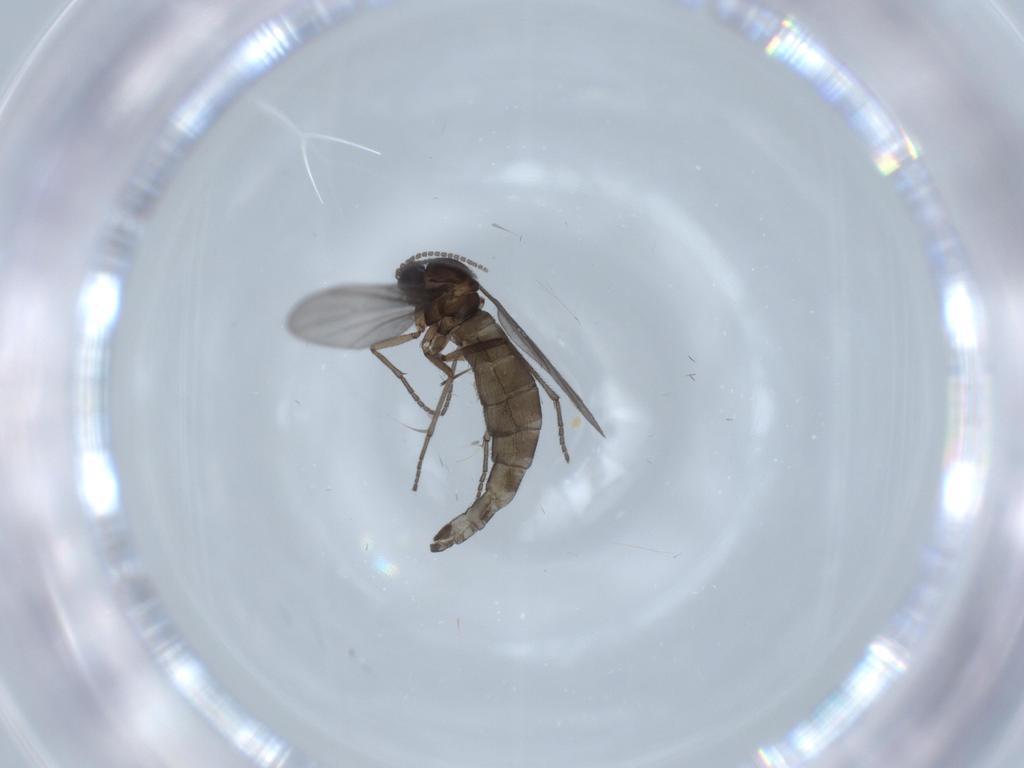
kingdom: Animalia
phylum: Arthropoda
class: Insecta
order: Diptera
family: Sciaridae
